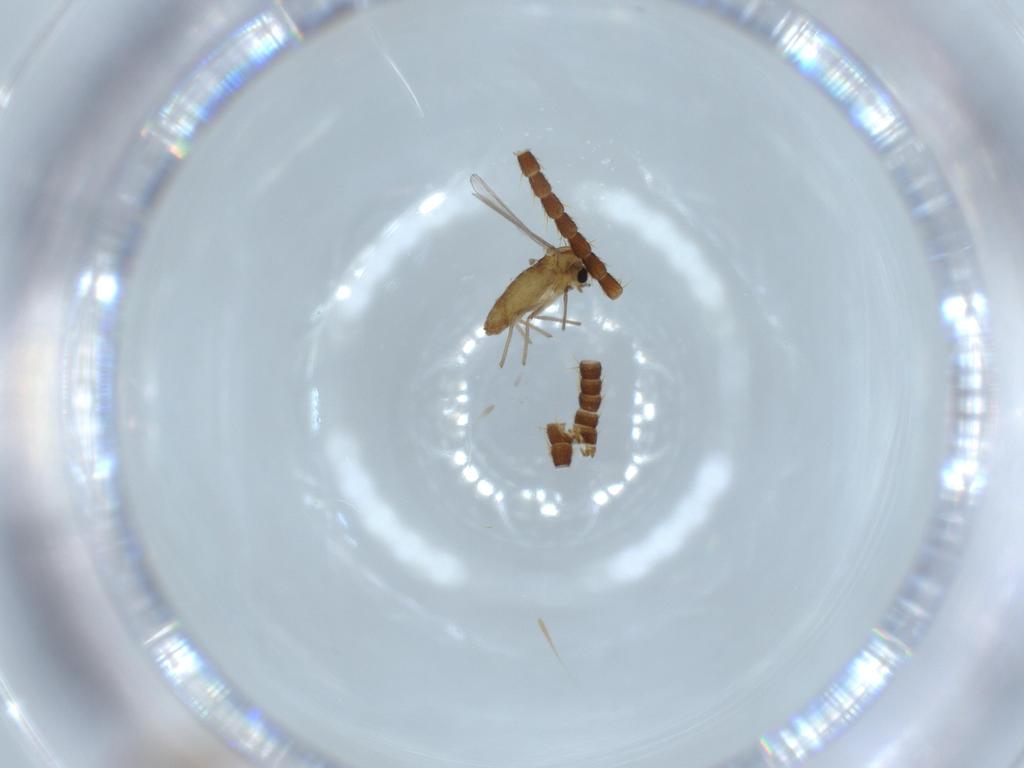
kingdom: Animalia
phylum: Arthropoda
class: Insecta
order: Diptera
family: Chironomidae
